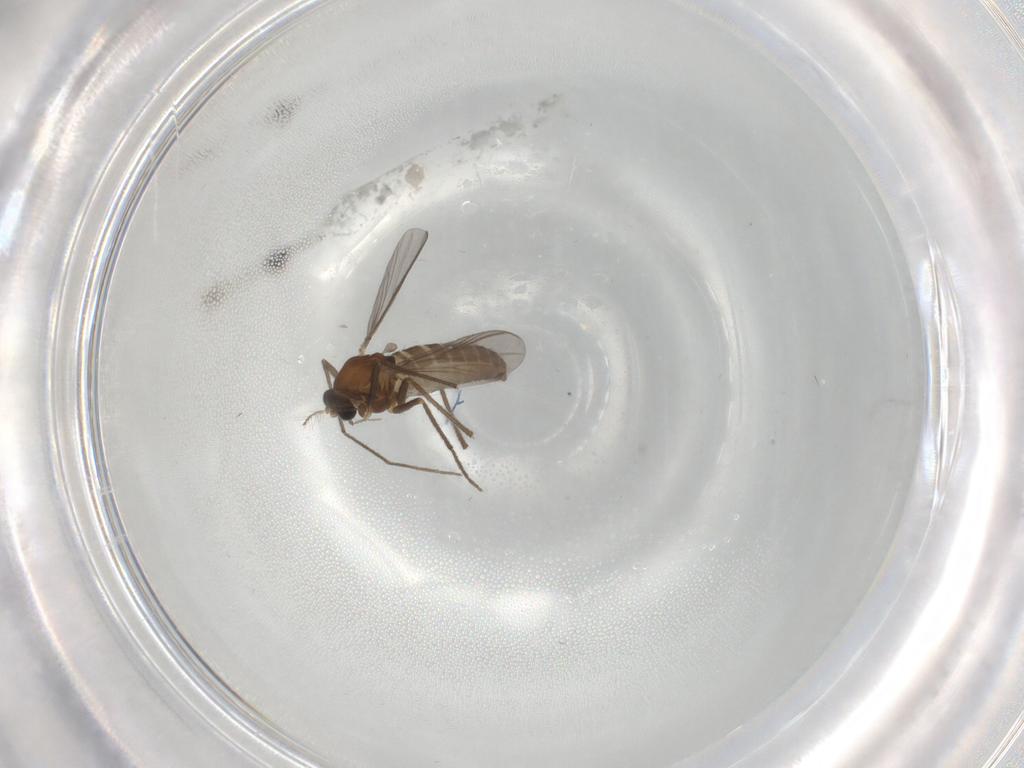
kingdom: Animalia
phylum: Arthropoda
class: Insecta
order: Diptera
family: Chironomidae
